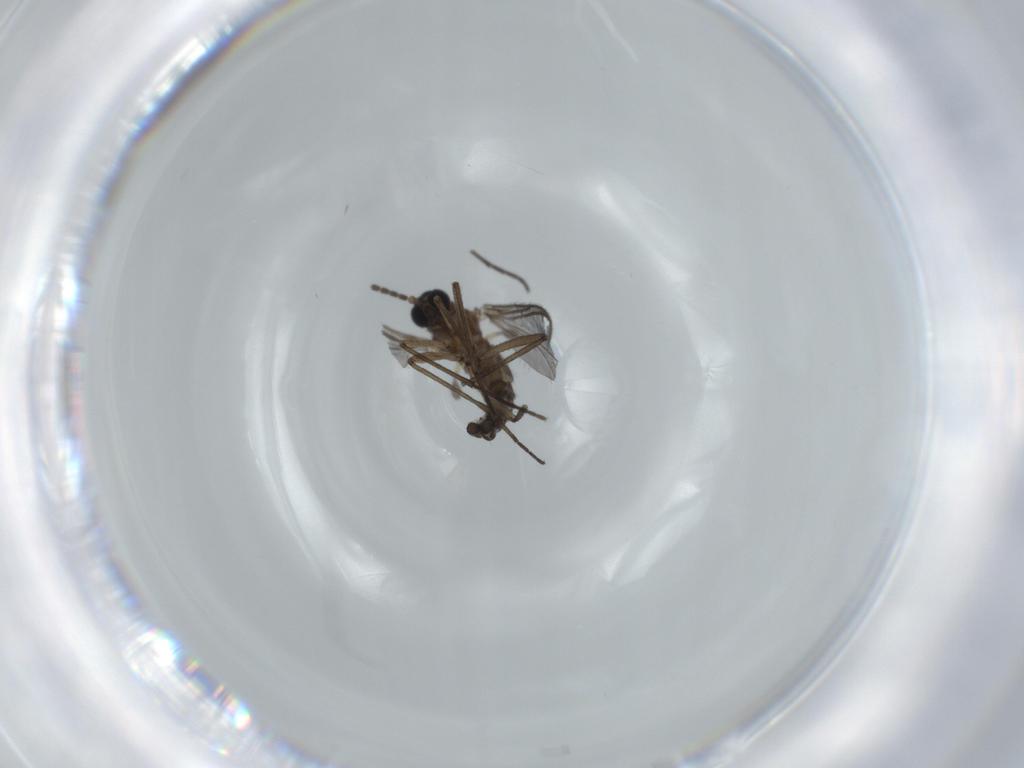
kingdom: Animalia
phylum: Arthropoda
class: Insecta
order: Diptera
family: Sciaridae
